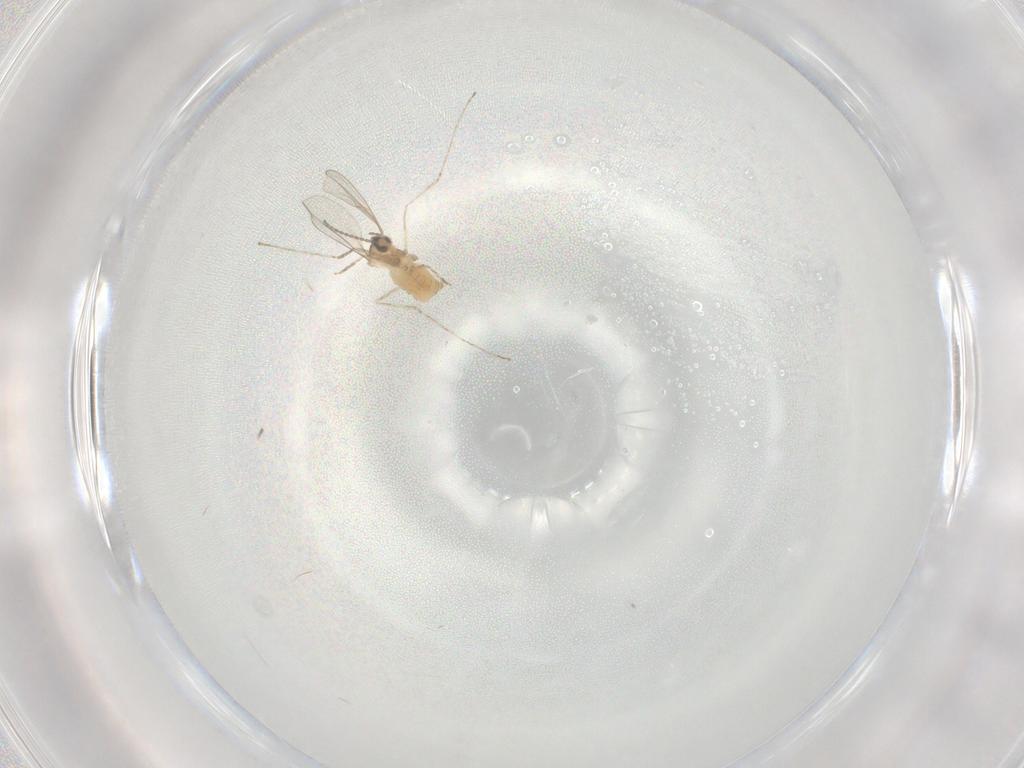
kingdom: Animalia
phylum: Arthropoda
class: Insecta
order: Diptera
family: Cecidomyiidae
